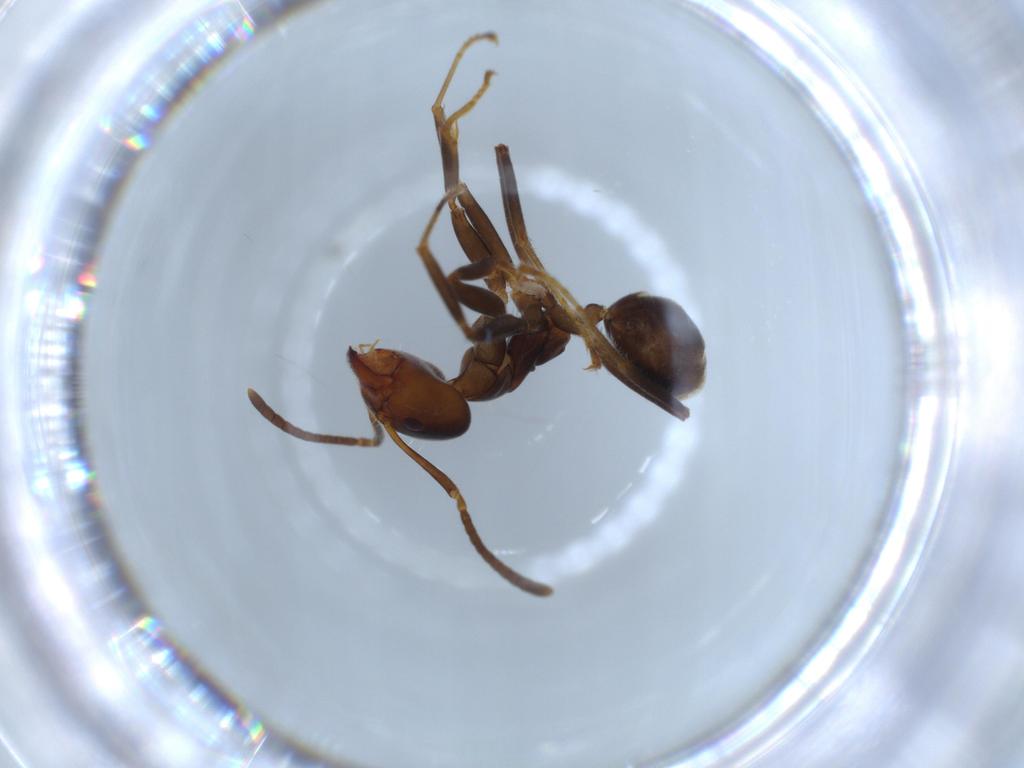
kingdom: Animalia
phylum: Arthropoda
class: Insecta
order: Hymenoptera
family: Formicidae
